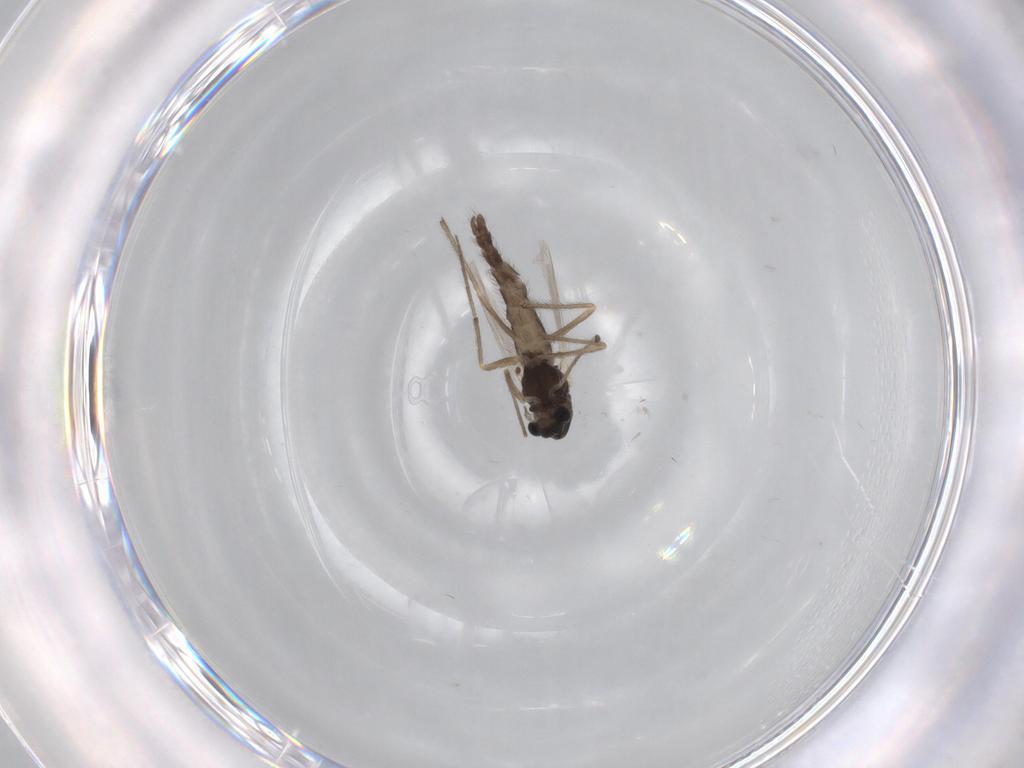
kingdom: Animalia
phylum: Arthropoda
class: Insecta
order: Diptera
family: Chironomidae
